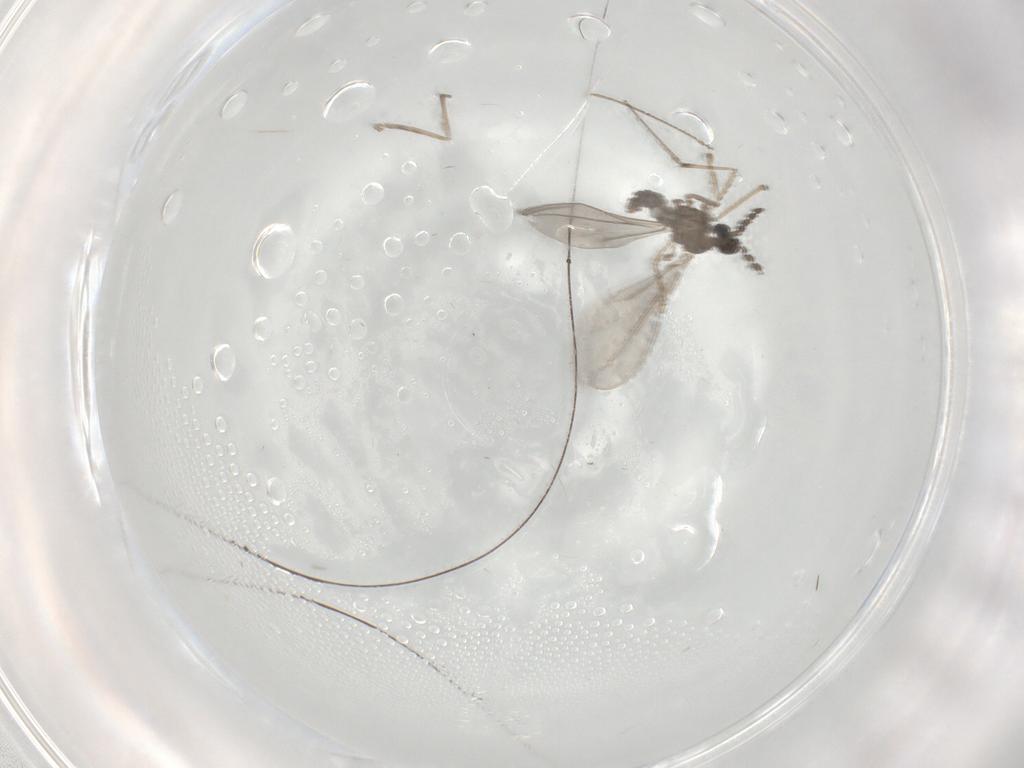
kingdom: Animalia
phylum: Arthropoda
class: Insecta
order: Diptera
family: Cecidomyiidae
